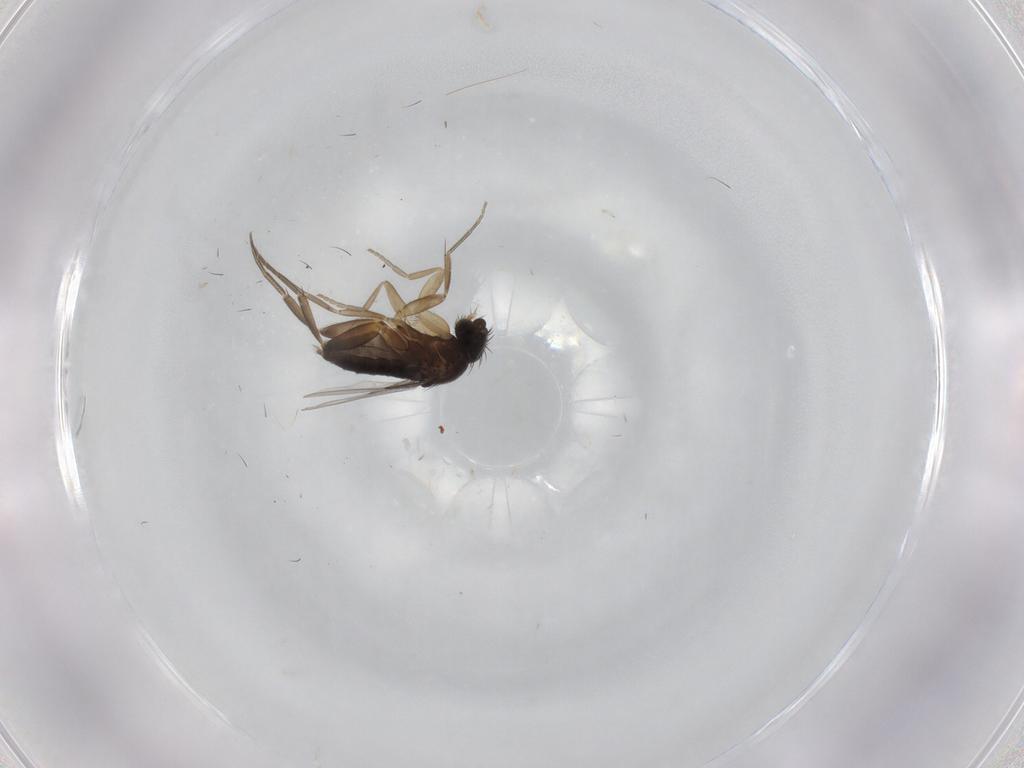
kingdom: Animalia
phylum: Arthropoda
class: Insecta
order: Diptera
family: Phoridae
